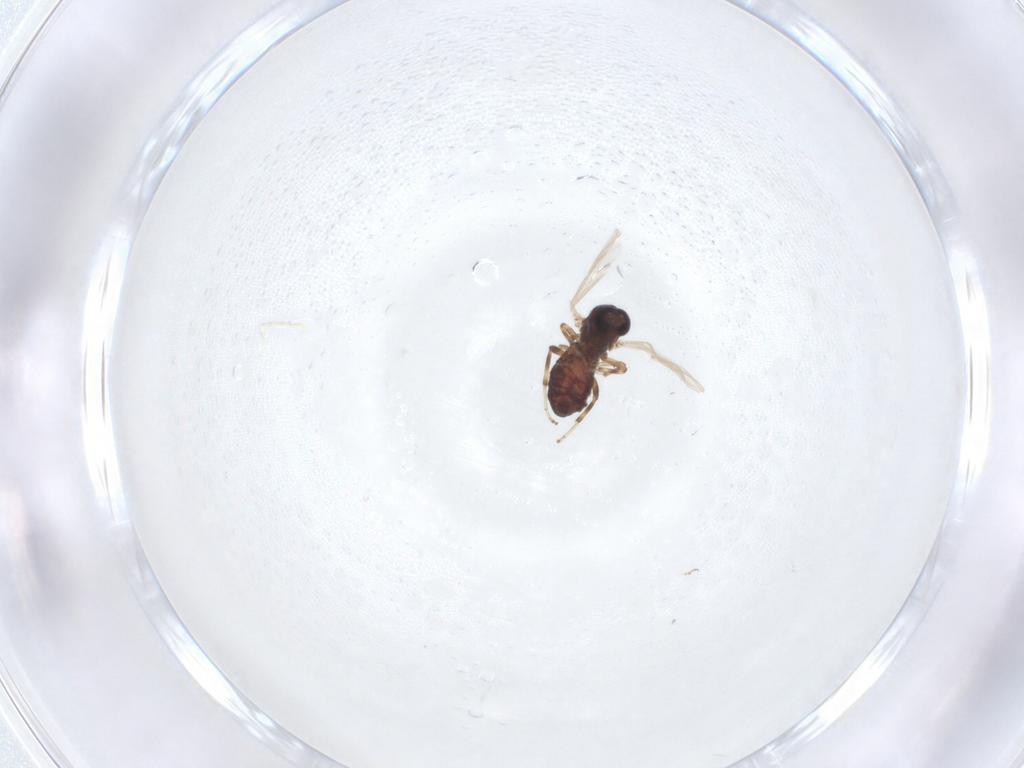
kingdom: Animalia
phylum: Arthropoda
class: Insecta
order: Diptera
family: Ceratopogonidae
